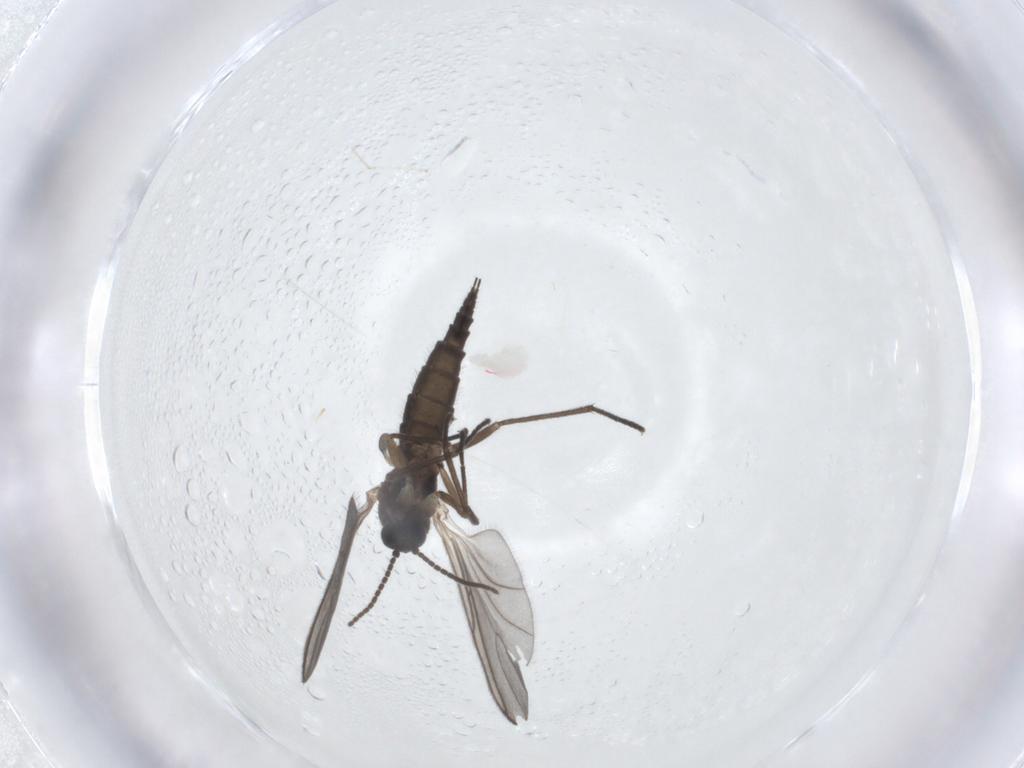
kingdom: Animalia
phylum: Arthropoda
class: Insecta
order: Diptera
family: Sciaridae
